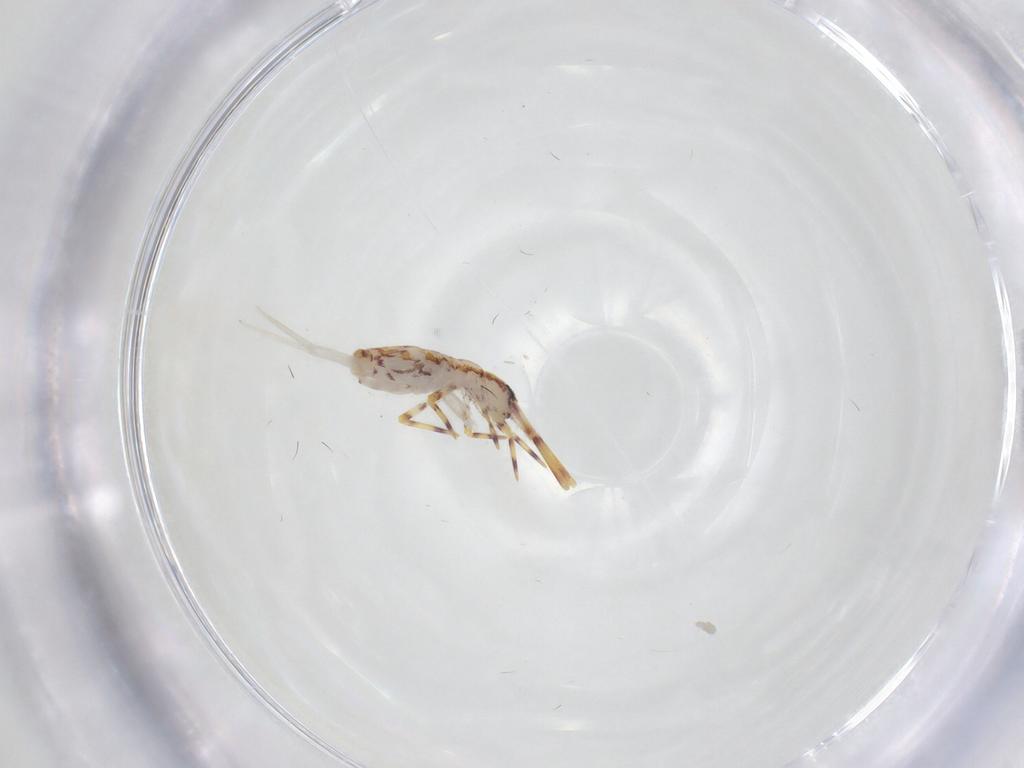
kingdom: Animalia
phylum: Arthropoda
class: Collembola
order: Entomobryomorpha
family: Entomobryidae
